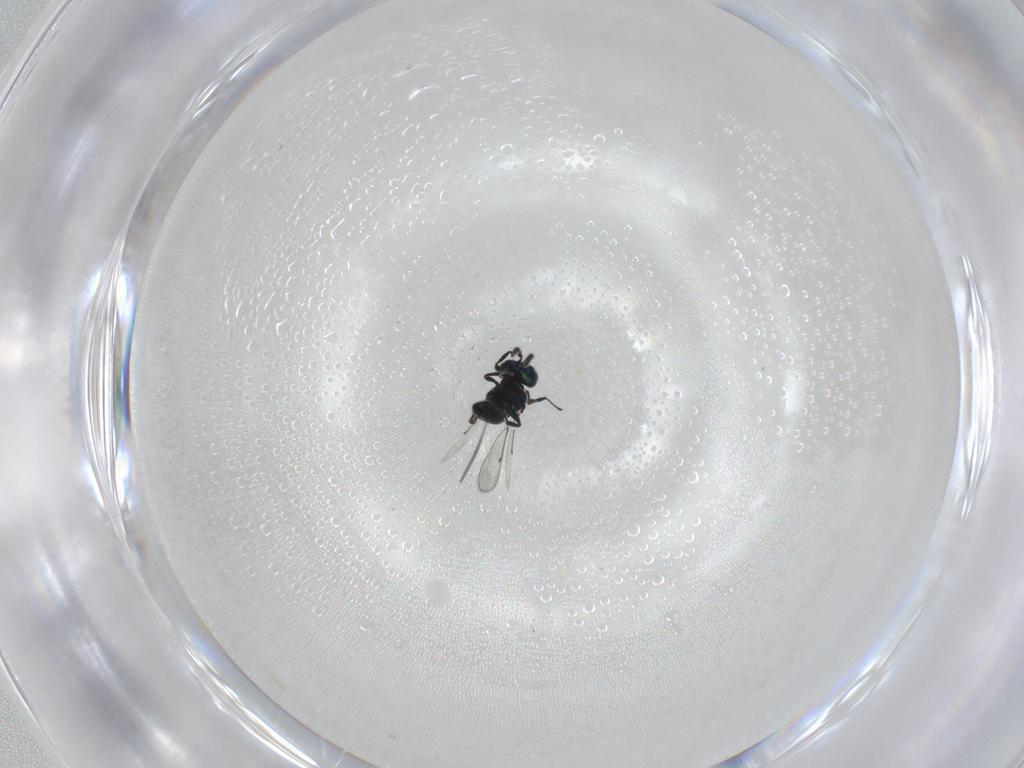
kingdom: Animalia
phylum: Arthropoda
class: Insecta
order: Hymenoptera
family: Eulophidae
